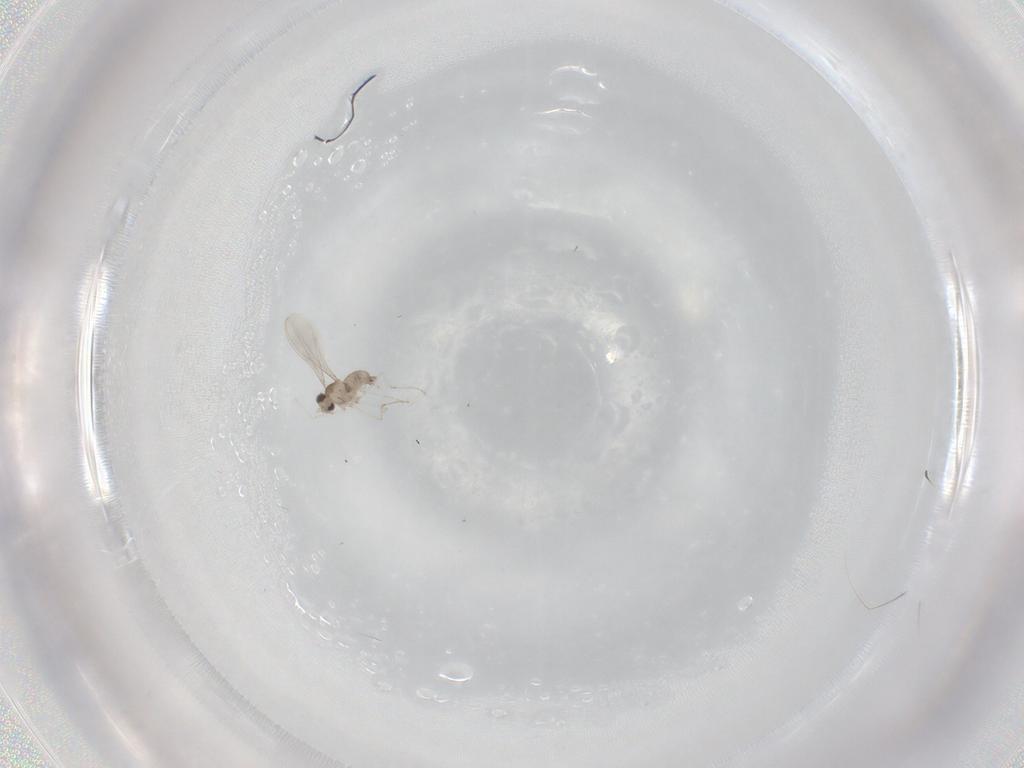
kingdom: Animalia
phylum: Arthropoda
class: Insecta
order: Diptera
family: Cecidomyiidae
